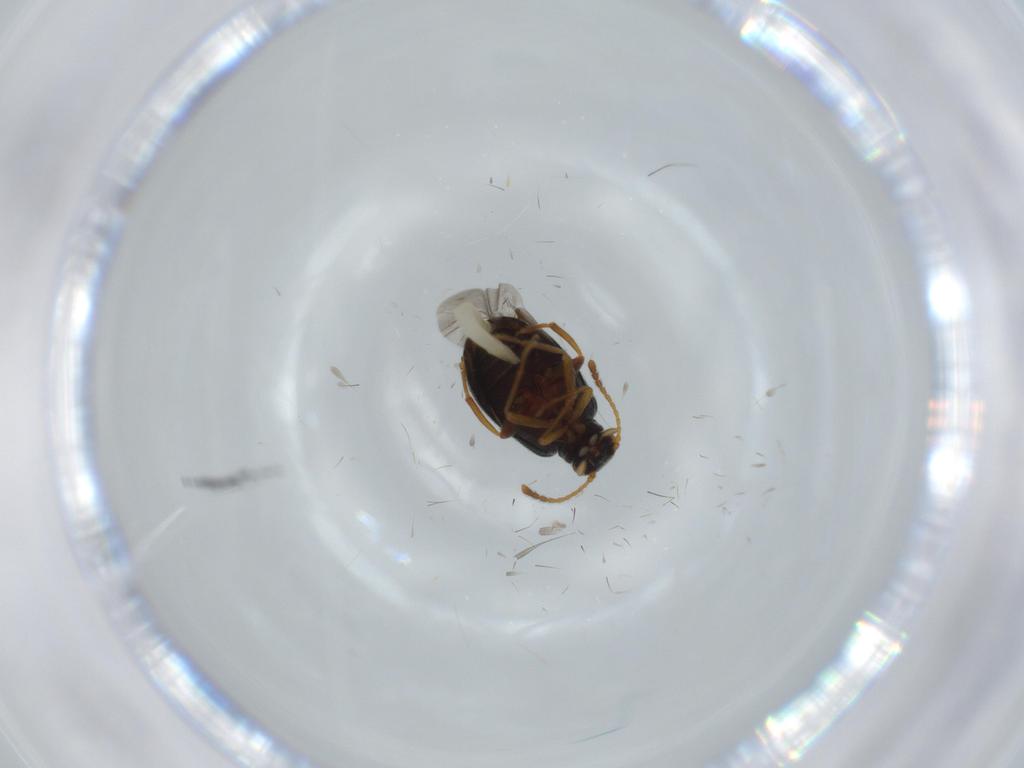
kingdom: Animalia
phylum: Arthropoda
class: Insecta
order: Coleoptera
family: Aderidae
